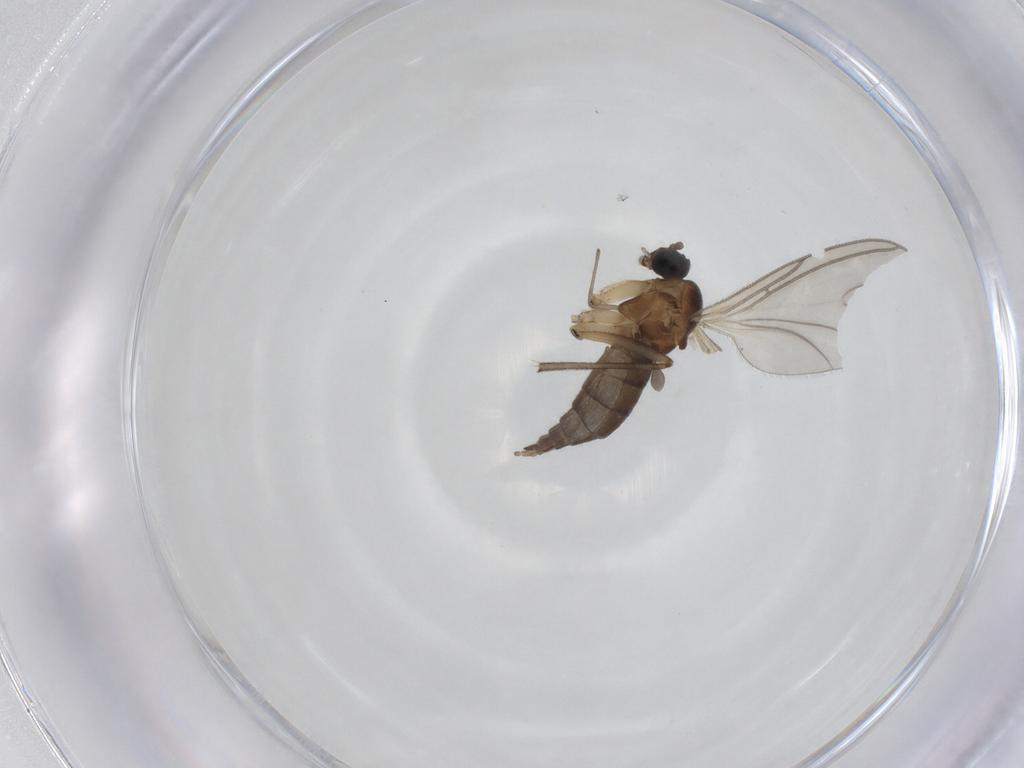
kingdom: Animalia
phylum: Arthropoda
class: Insecta
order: Diptera
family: Sciaridae
